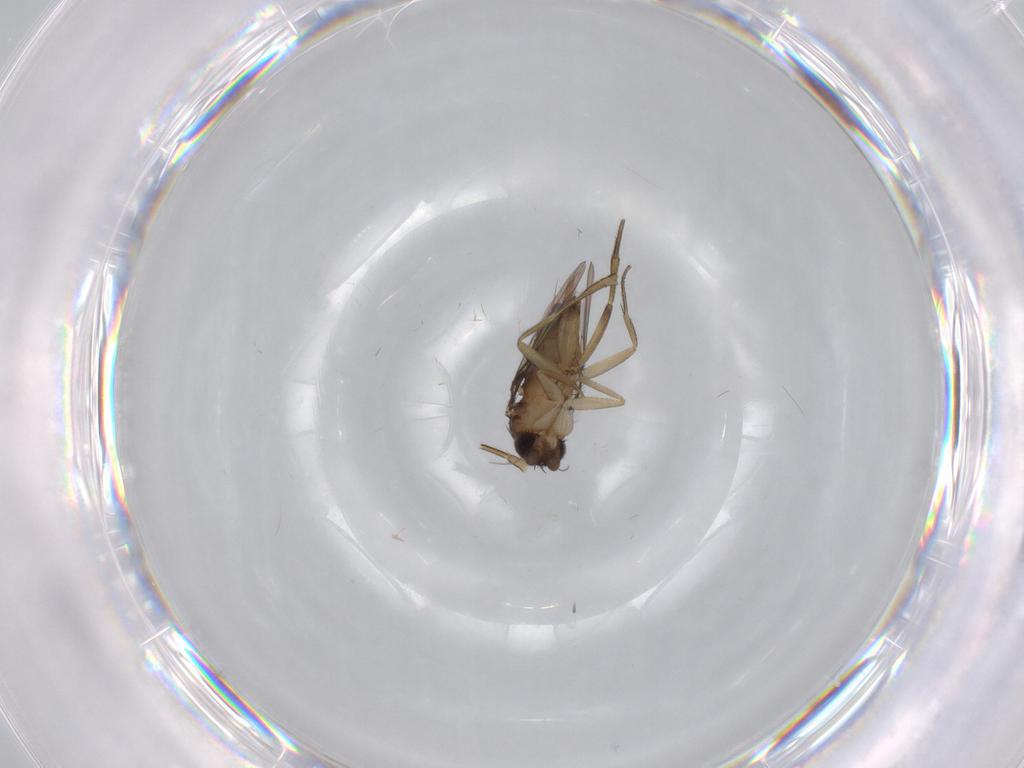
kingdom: Animalia
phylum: Arthropoda
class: Insecta
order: Diptera
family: Phoridae
